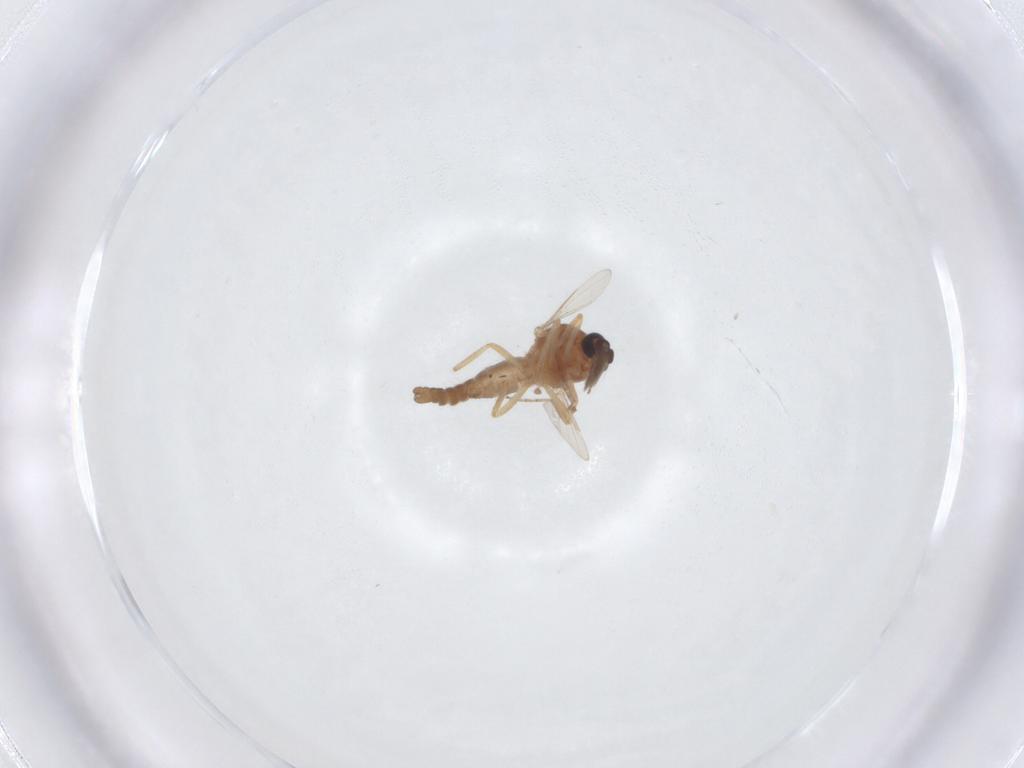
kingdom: Animalia
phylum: Arthropoda
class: Insecta
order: Diptera
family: Ceratopogonidae
